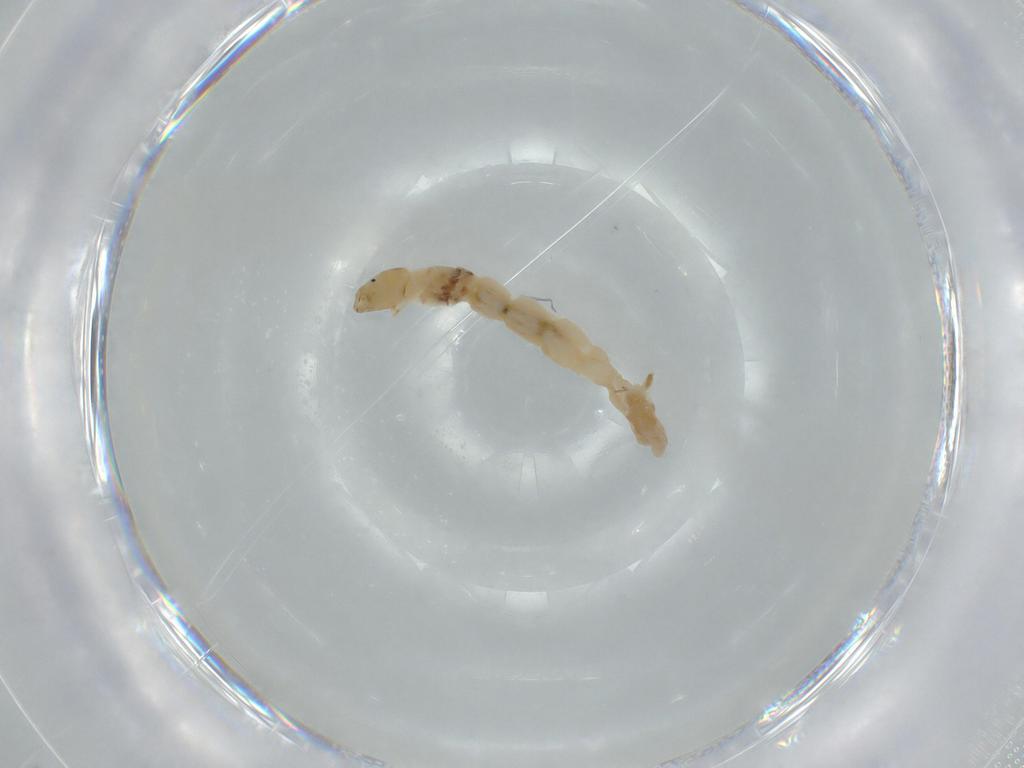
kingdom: Animalia
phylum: Arthropoda
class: Insecta
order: Diptera
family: Chironomidae
